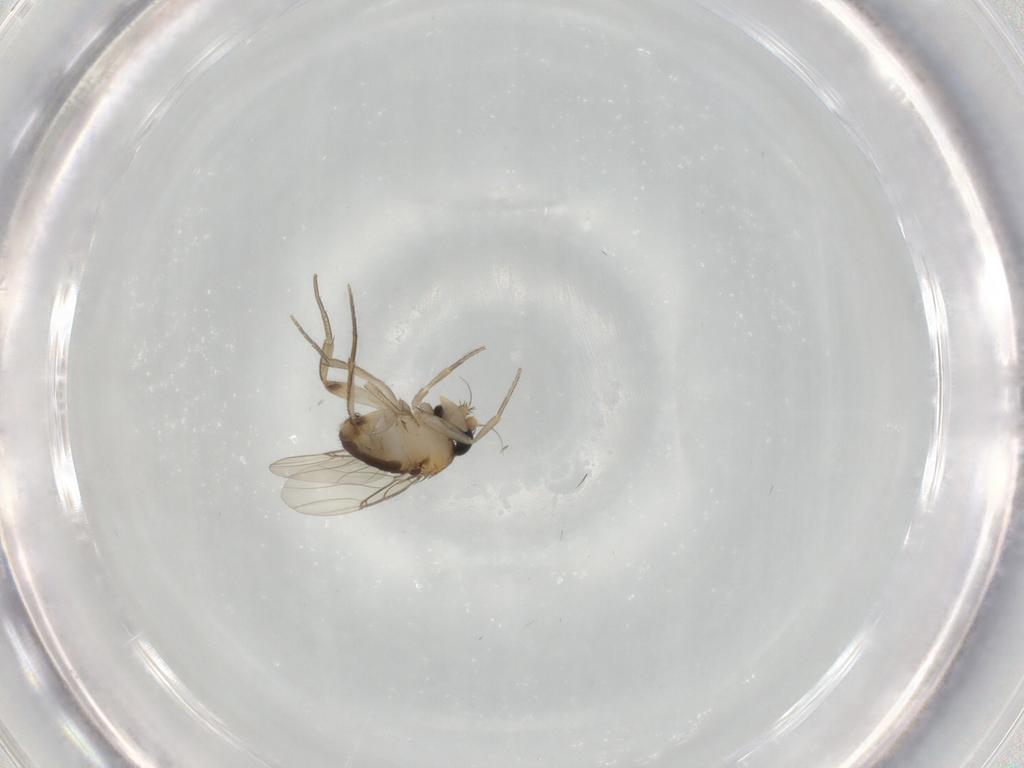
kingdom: Animalia
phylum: Arthropoda
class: Insecta
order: Diptera
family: Phoridae
